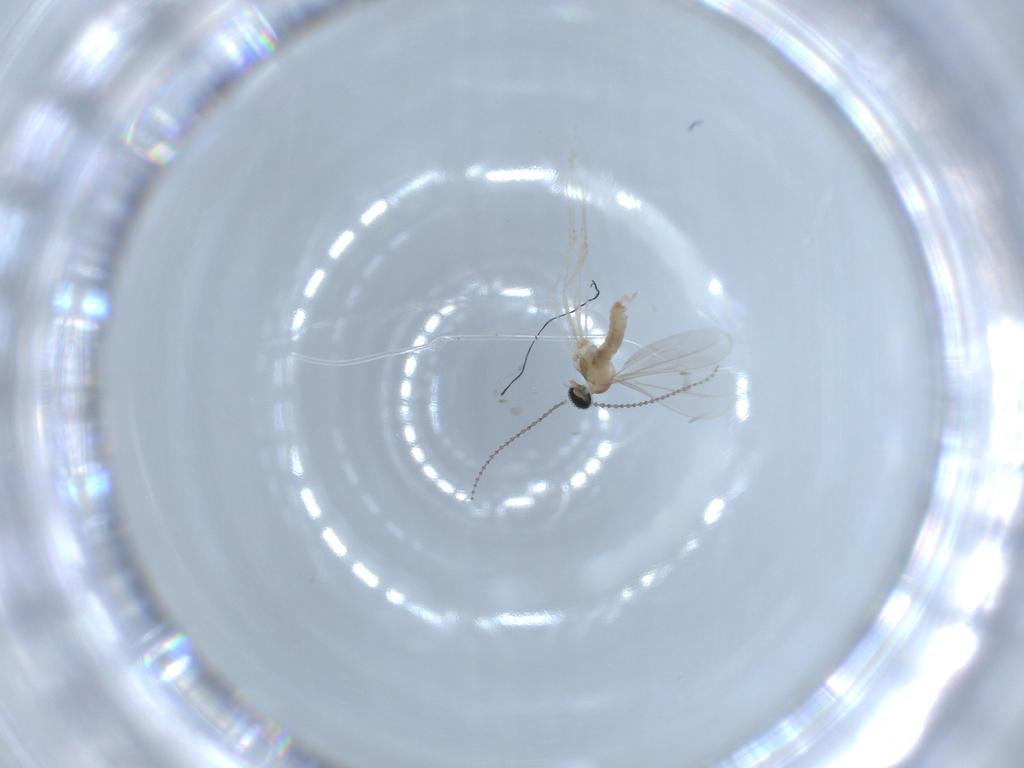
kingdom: Animalia
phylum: Arthropoda
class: Insecta
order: Diptera
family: Cecidomyiidae
